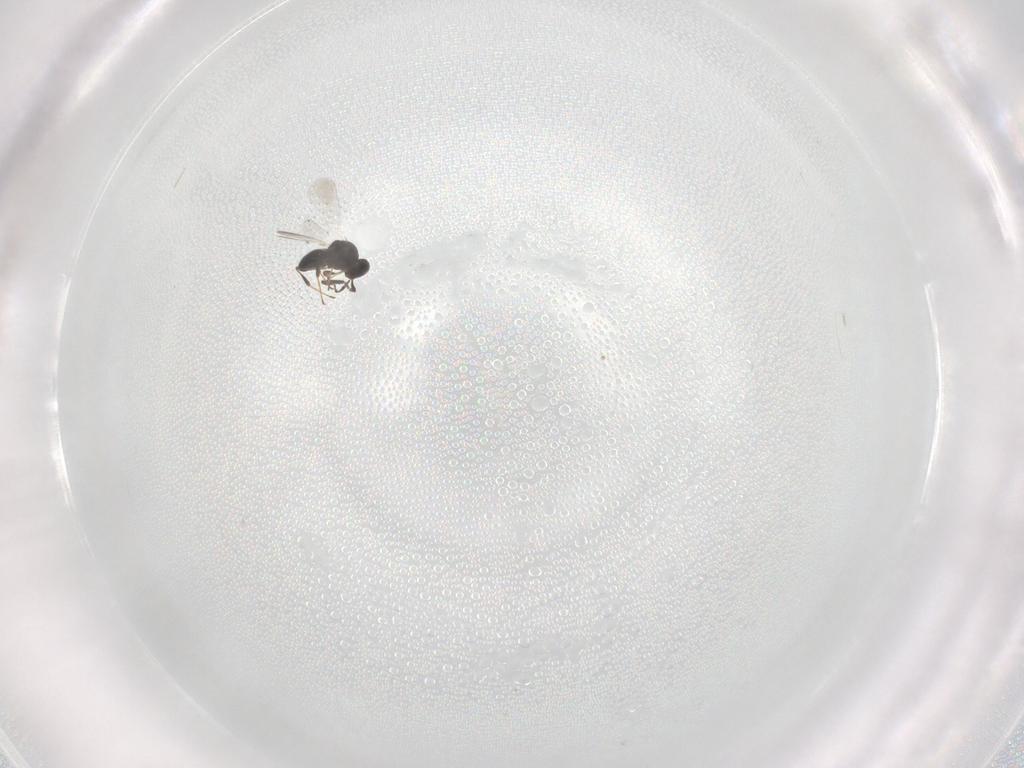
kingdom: Animalia
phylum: Arthropoda
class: Insecta
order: Hymenoptera
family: Platygastridae
